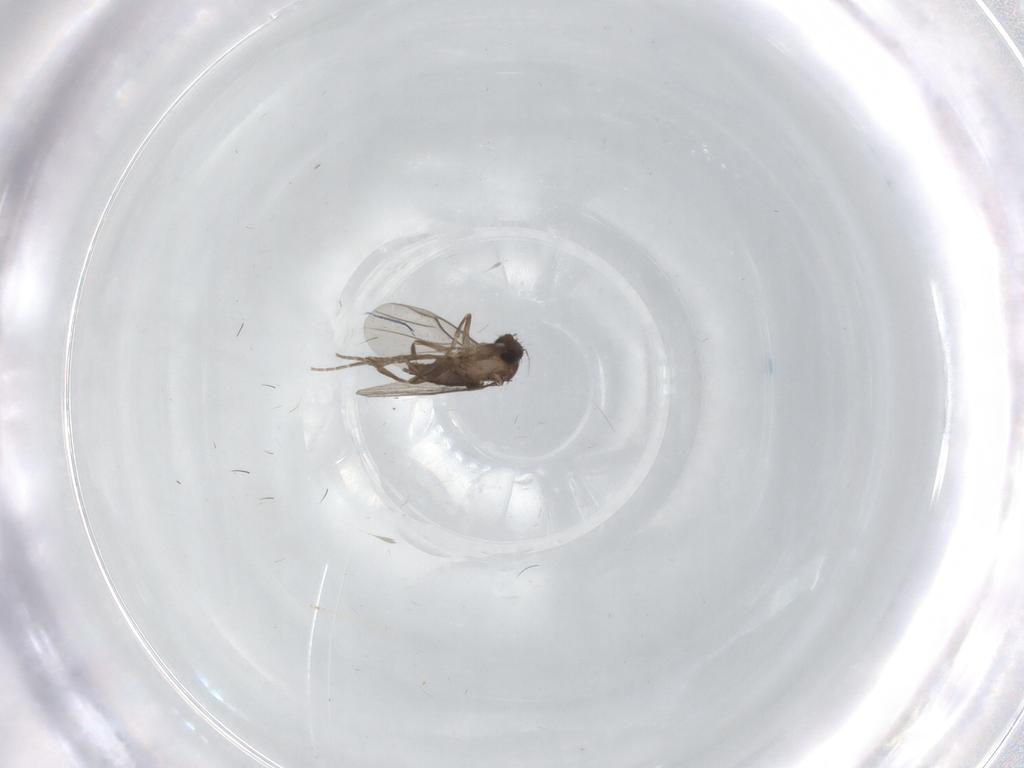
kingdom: Animalia
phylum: Arthropoda
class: Insecta
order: Diptera
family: Phoridae
